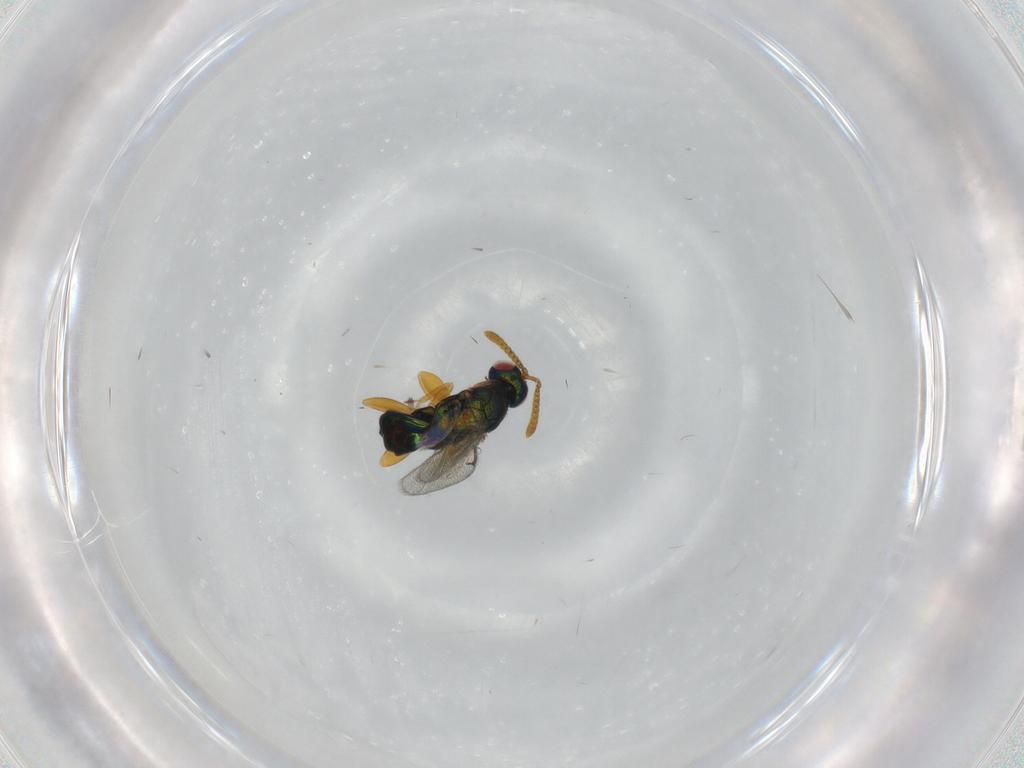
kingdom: Animalia
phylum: Arthropoda
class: Insecta
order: Hymenoptera
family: Torymidae
